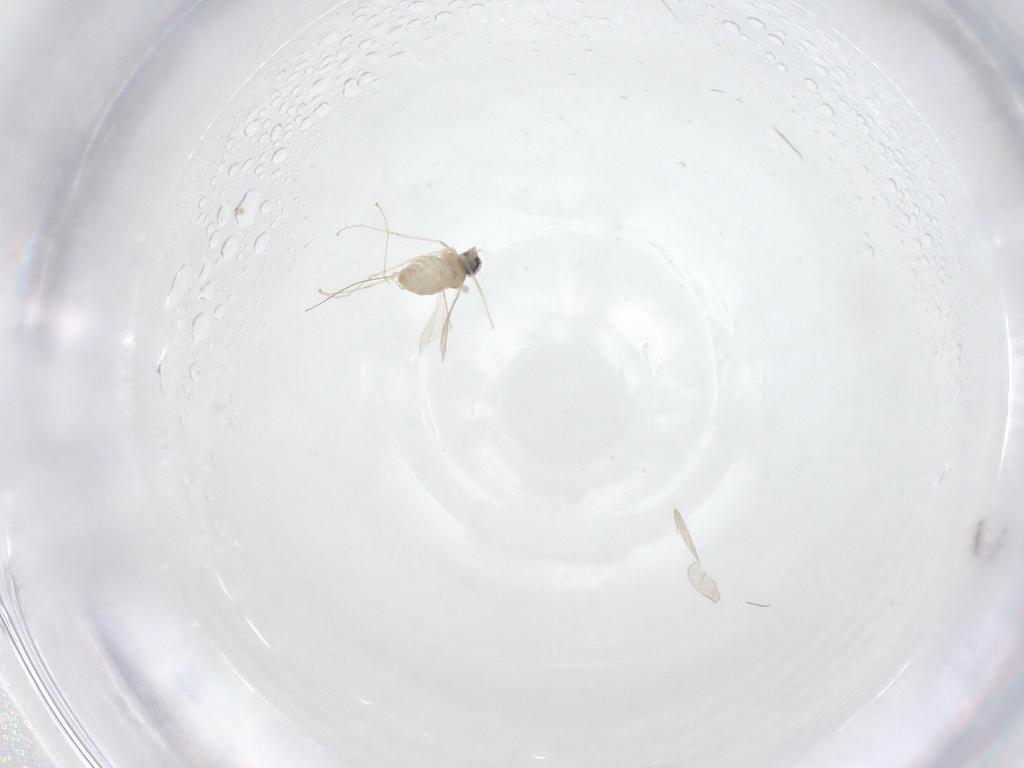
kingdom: Animalia
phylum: Arthropoda
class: Insecta
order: Diptera
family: Cecidomyiidae
